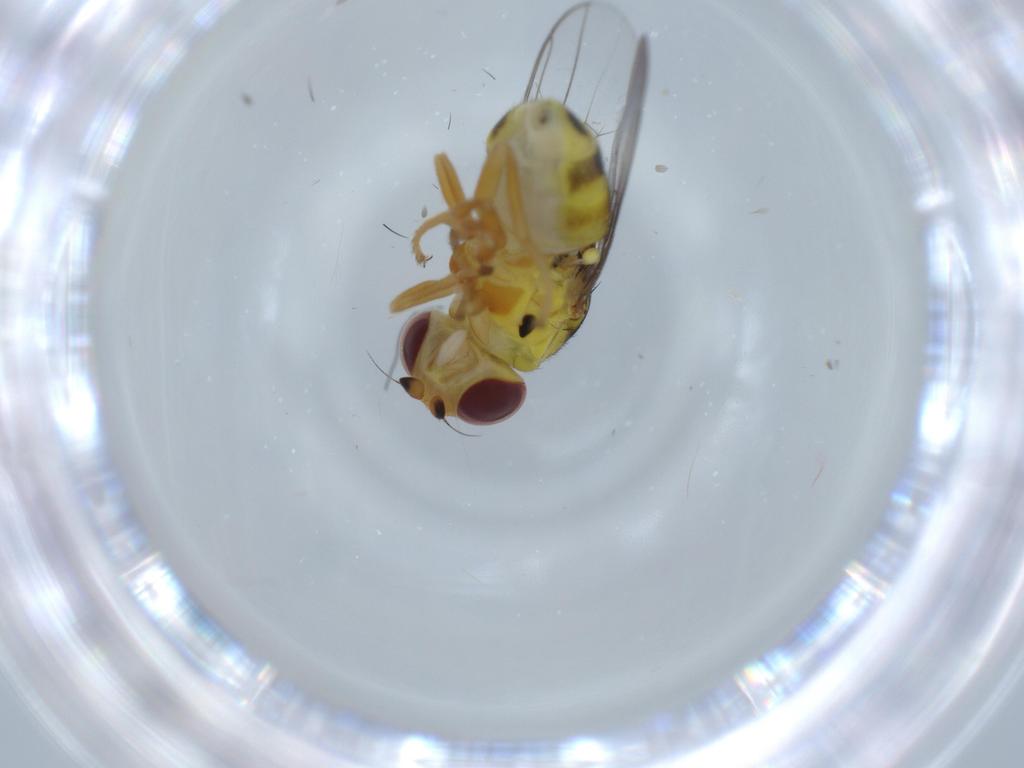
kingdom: Animalia
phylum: Arthropoda
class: Insecta
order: Diptera
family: Chloropidae
